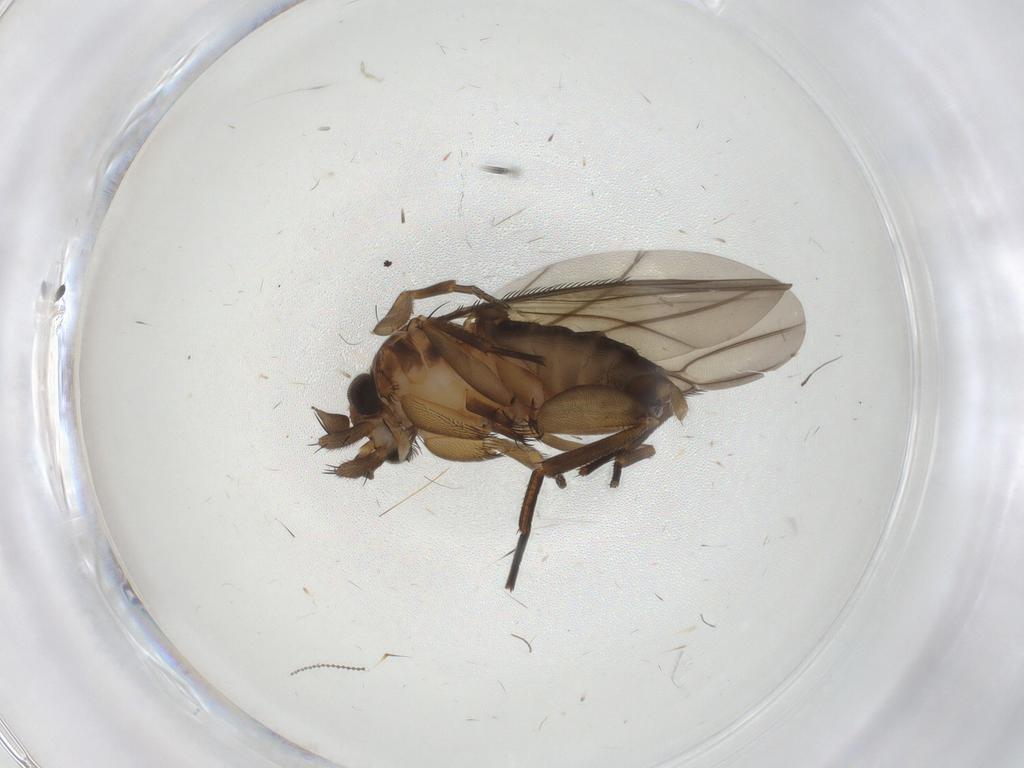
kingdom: Animalia
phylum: Arthropoda
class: Insecta
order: Diptera
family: Phoridae
